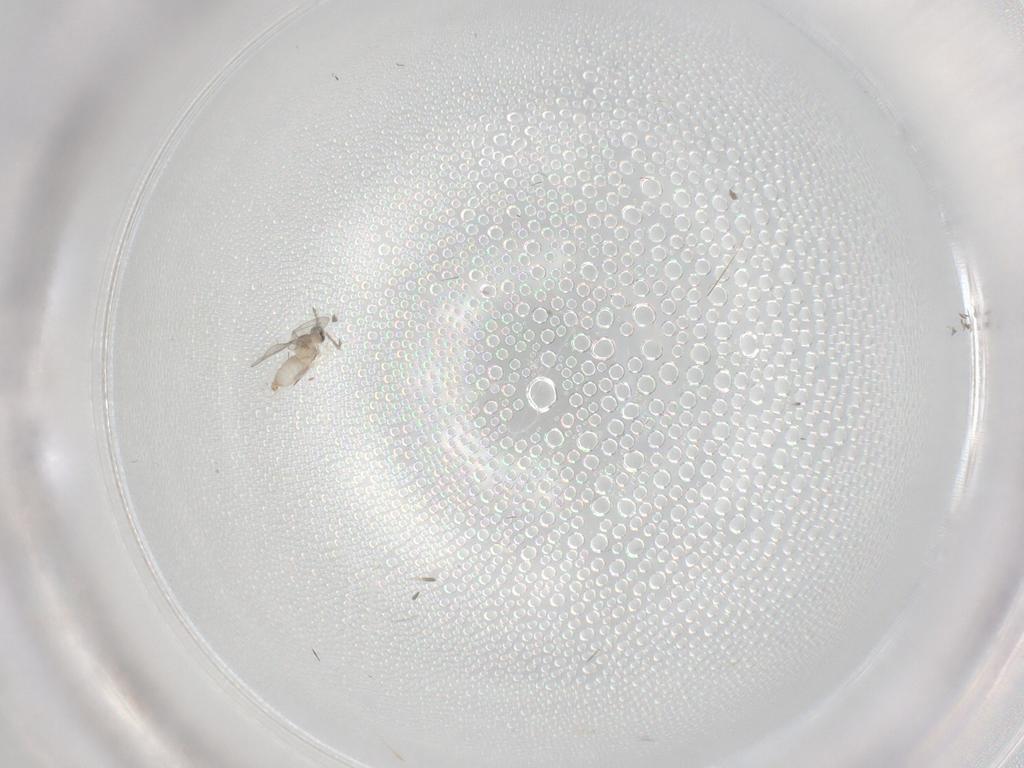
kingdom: Animalia
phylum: Arthropoda
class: Insecta
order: Diptera
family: Cecidomyiidae
